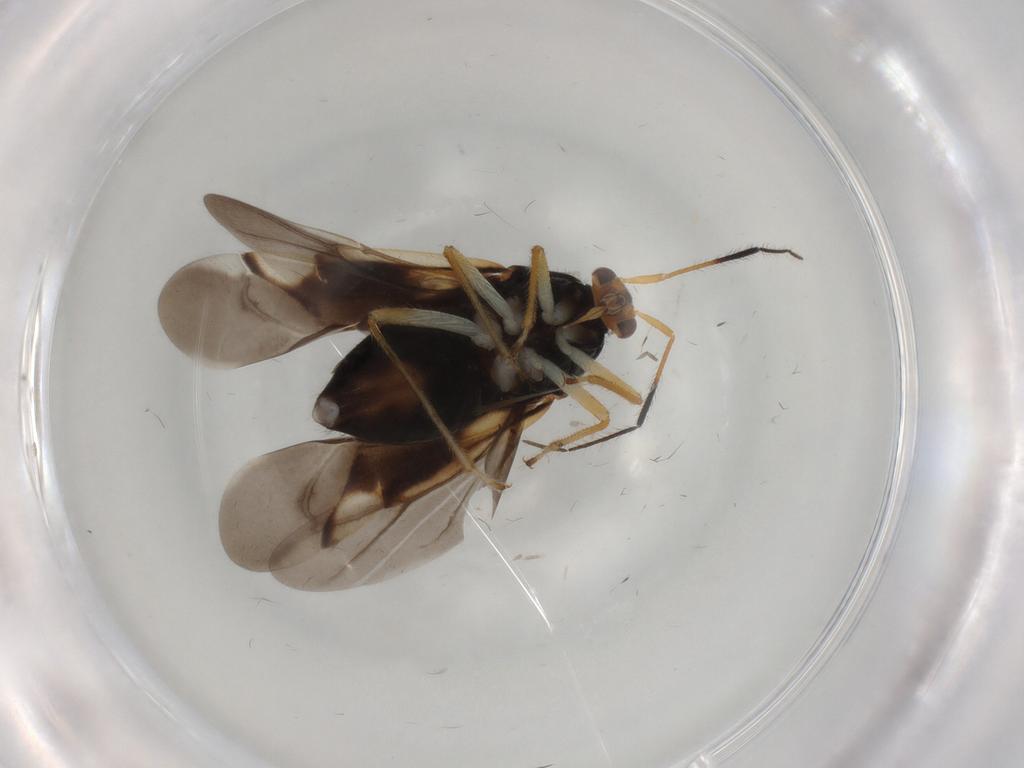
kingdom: Animalia
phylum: Arthropoda
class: Insecta
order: Hemiptera
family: Miridae
